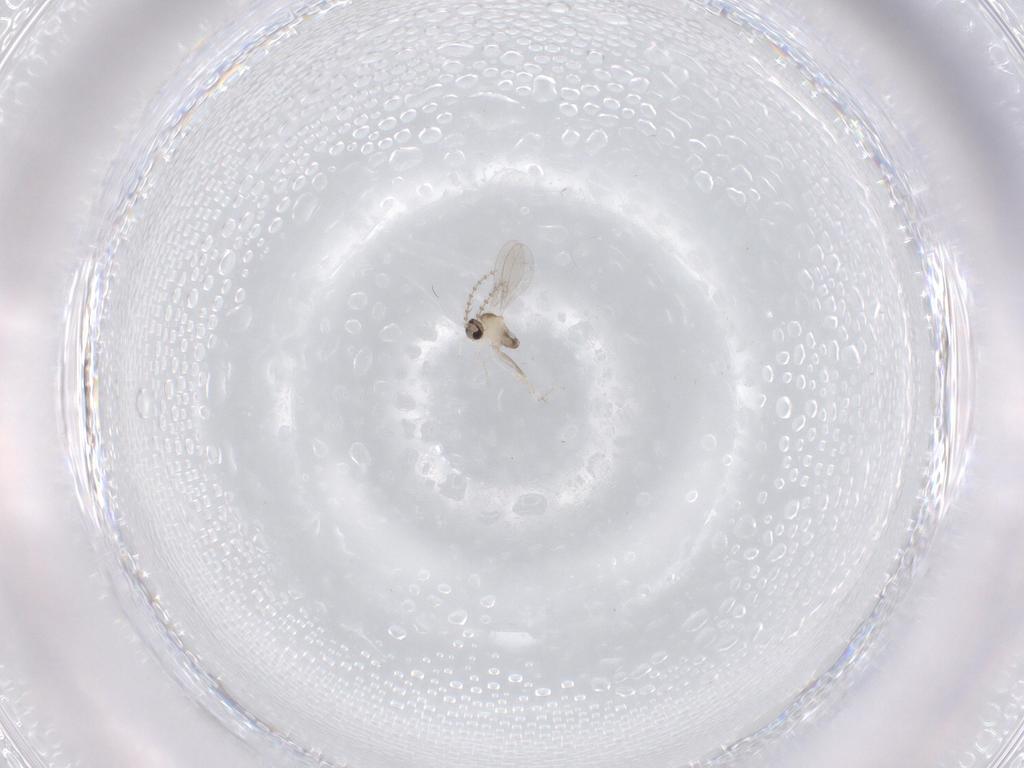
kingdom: Animalia
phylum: Arthropoda
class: Insecta
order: Diptera
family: Cecidomyiidae
